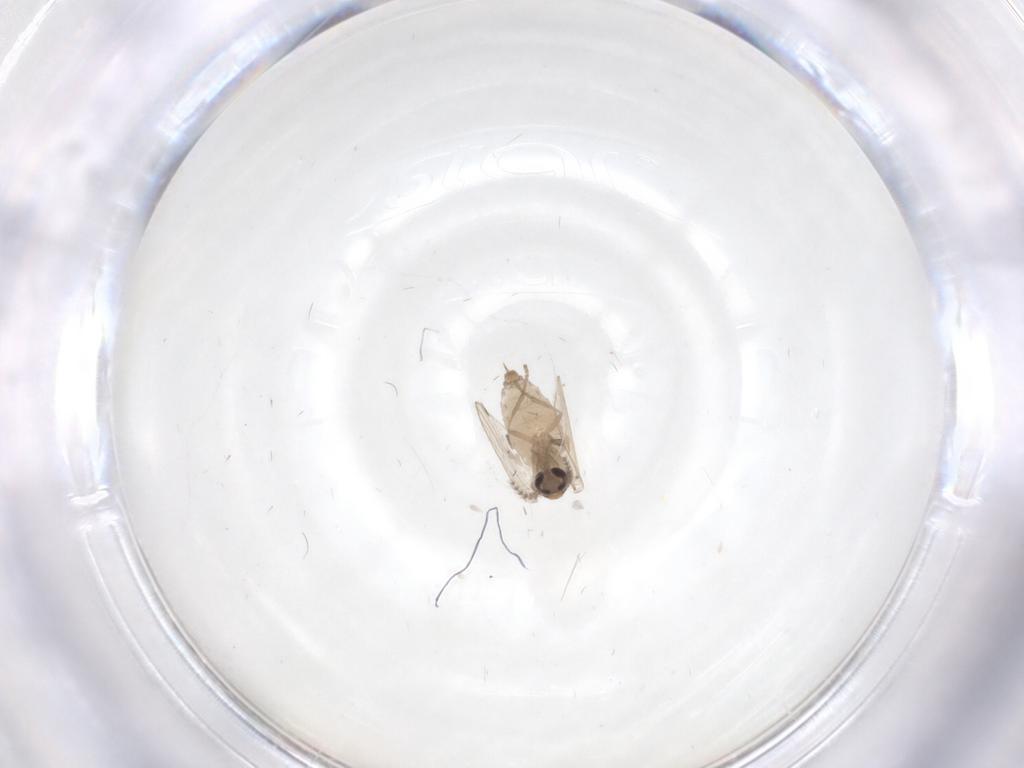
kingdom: Animalia
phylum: Arthropoda
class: Insecta
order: Diptera
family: Psychodidae
